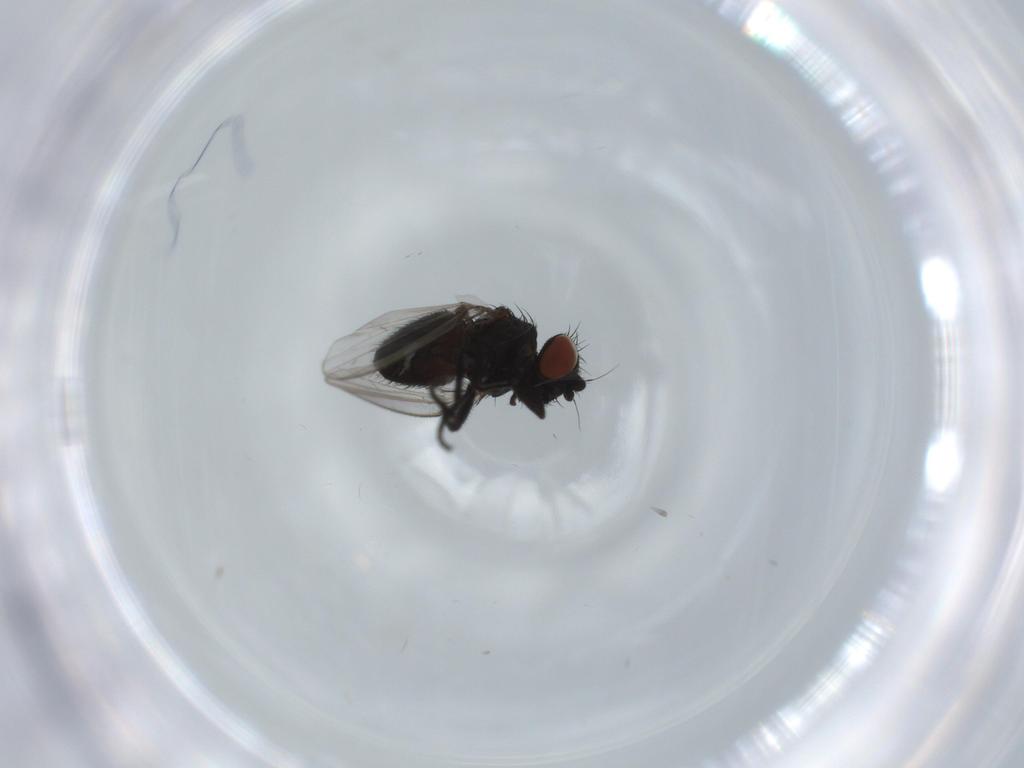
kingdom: Animalia
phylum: Arthropoda
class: Insecta
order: Diptera
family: Milichiidae
